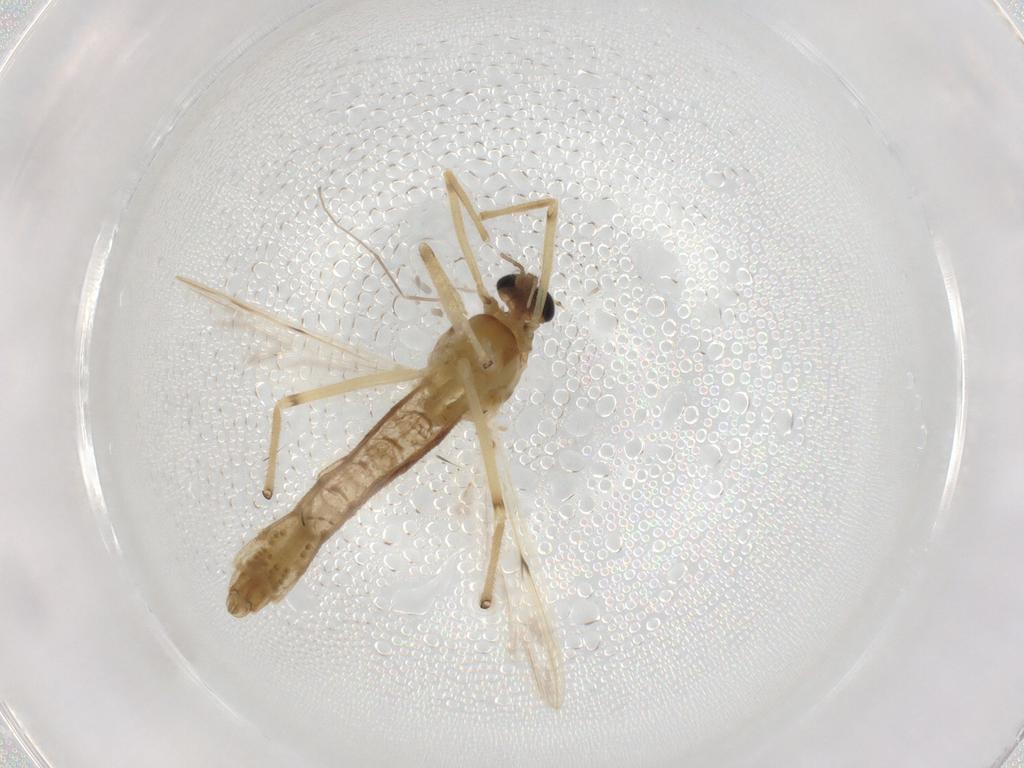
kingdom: Animalia
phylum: Arthropoda
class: Insecta
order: Diptera
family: Chironomidae
